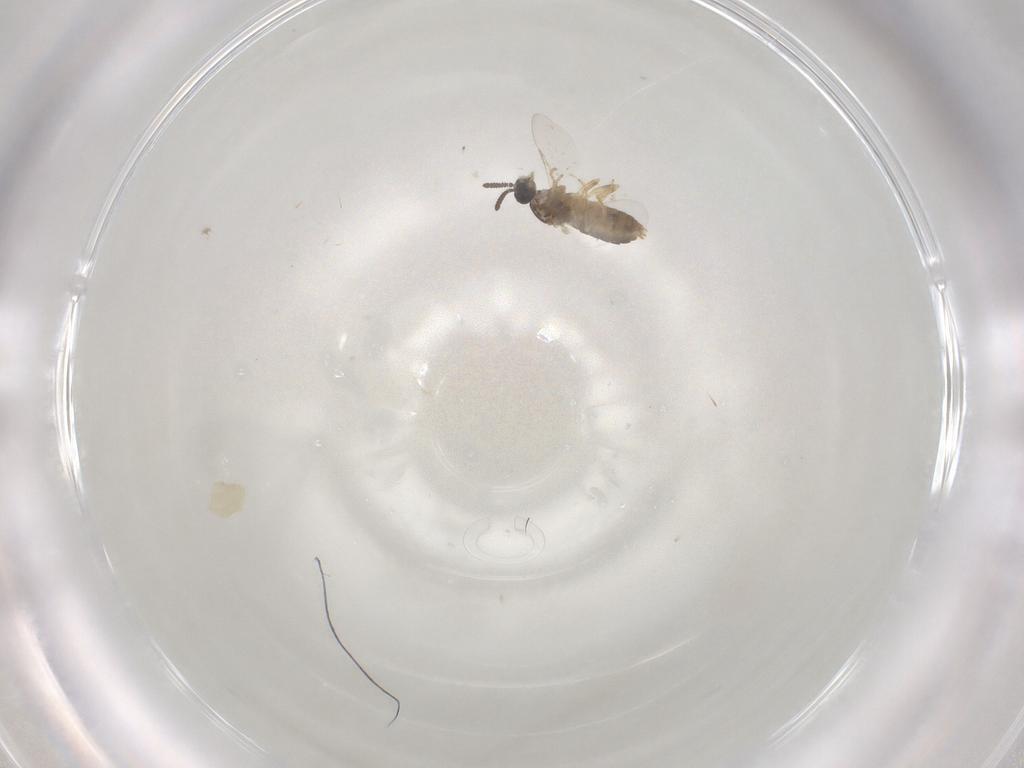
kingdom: Animalia
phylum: Arthropoda
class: Insecta
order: Diptera
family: Scatopsidae
